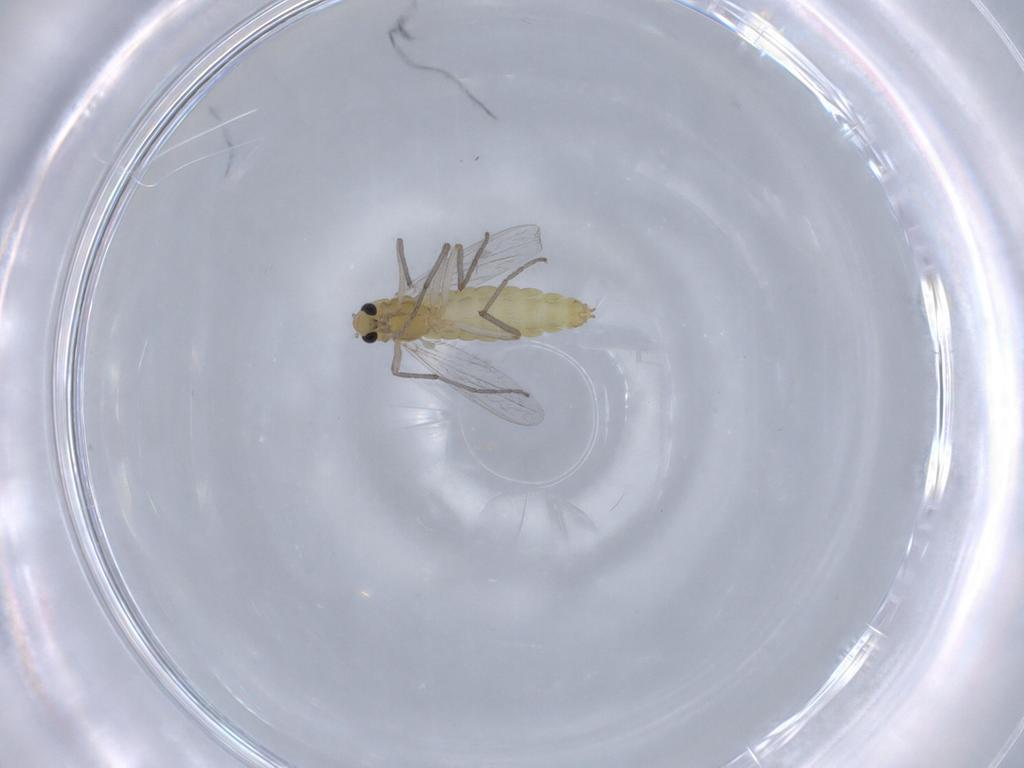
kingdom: Animalia
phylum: Arthropoda
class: Insecta
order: Diptera
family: Chironomidae
